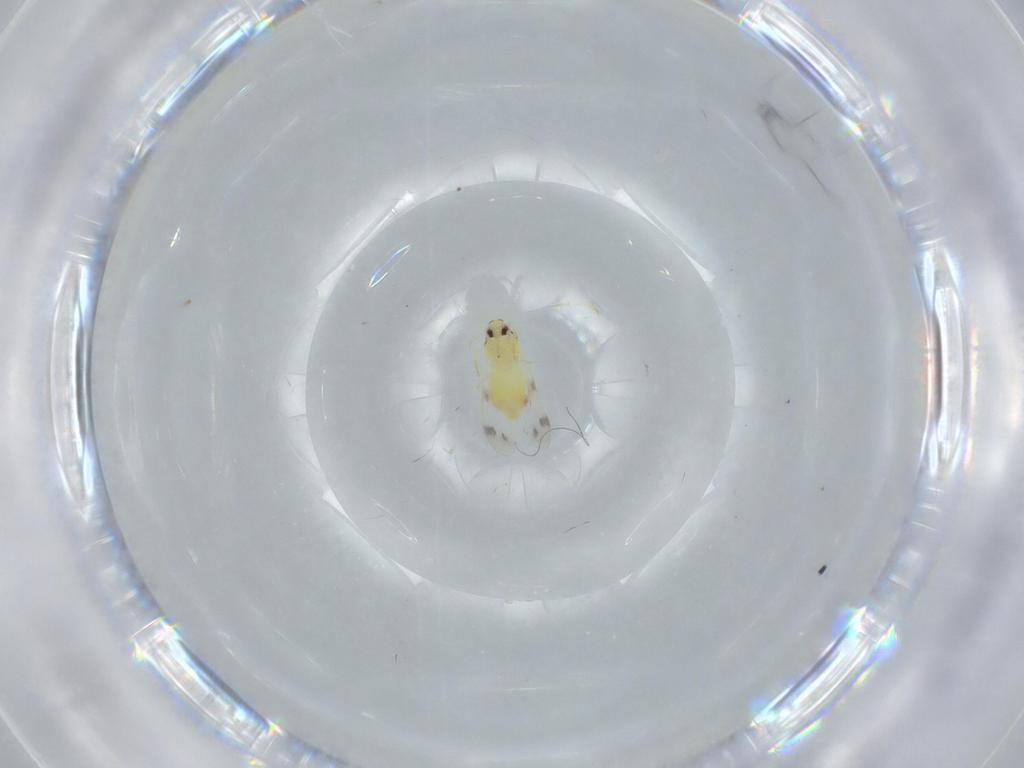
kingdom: Animalia
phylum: Arthropoda
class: Insecta
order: Hemiptera
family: Aleyrodidae
